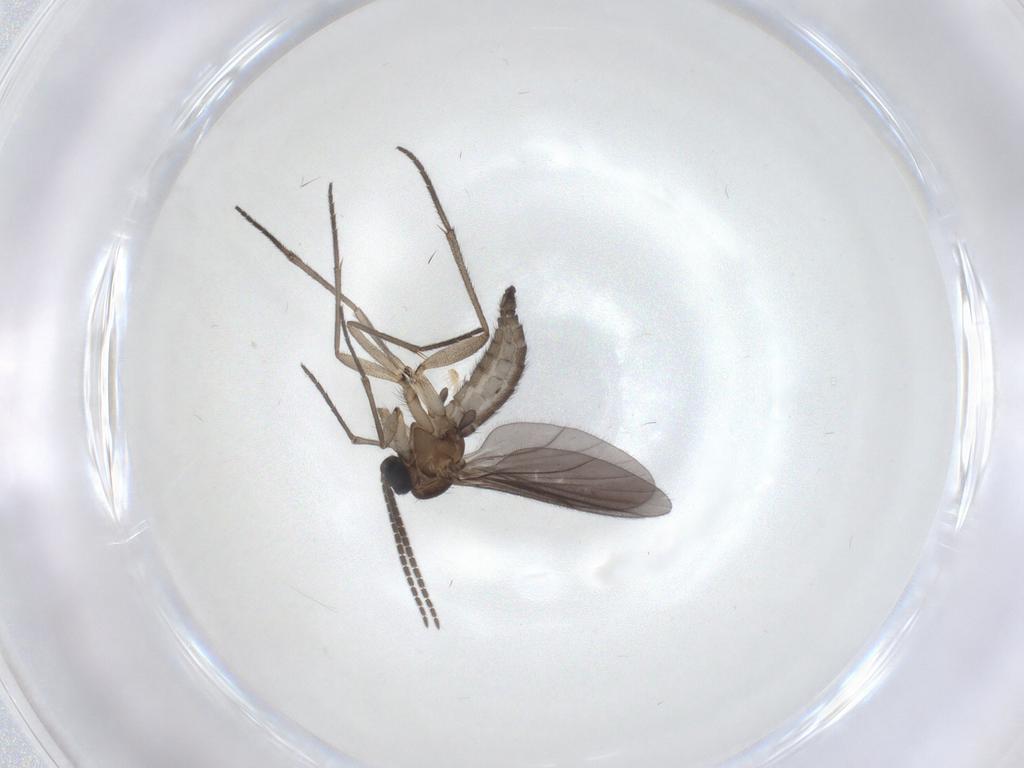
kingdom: Animalia
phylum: Arthropoda
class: Insecta
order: Diptera
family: Sciaridae
